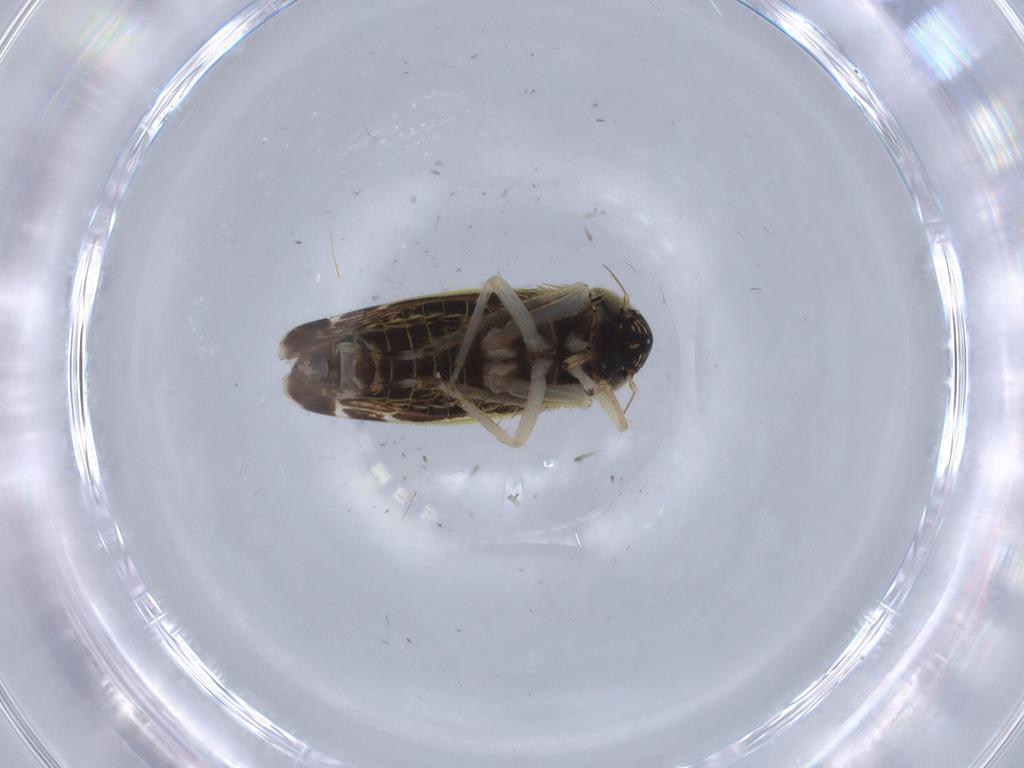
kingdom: Animalia
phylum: Arthropoda
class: Insecta
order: Hemiptera
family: Cicadellidae
